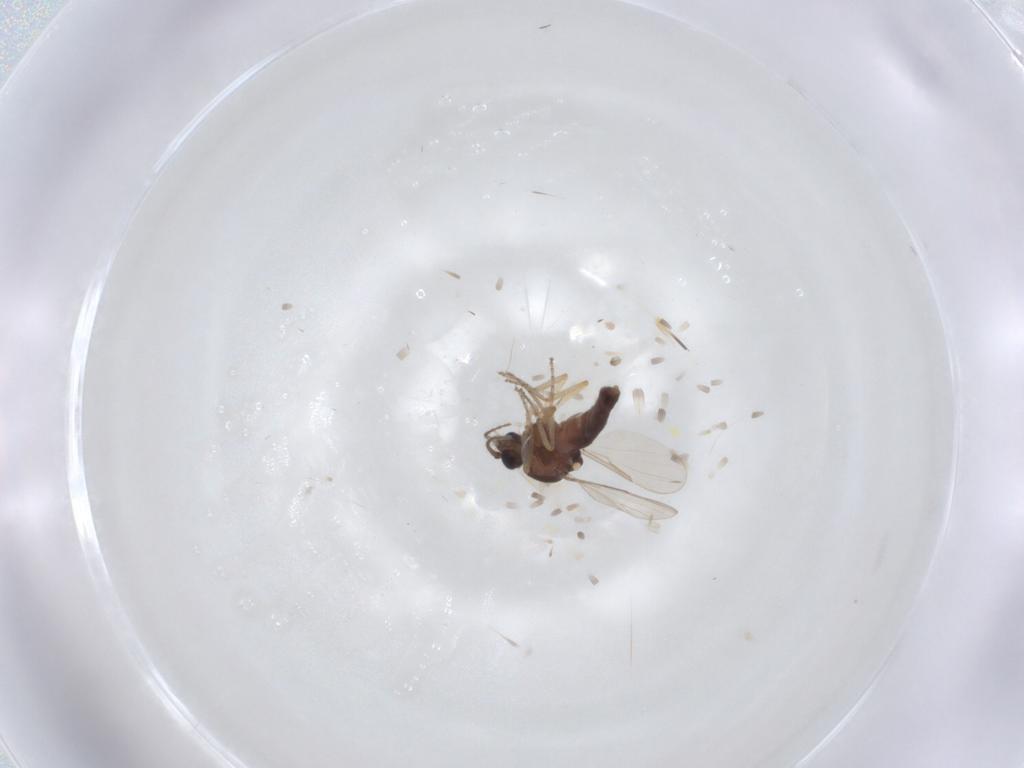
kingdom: Animalia
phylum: Arthropoda
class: Insecta
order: Diptera
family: Ceratopogonidae
